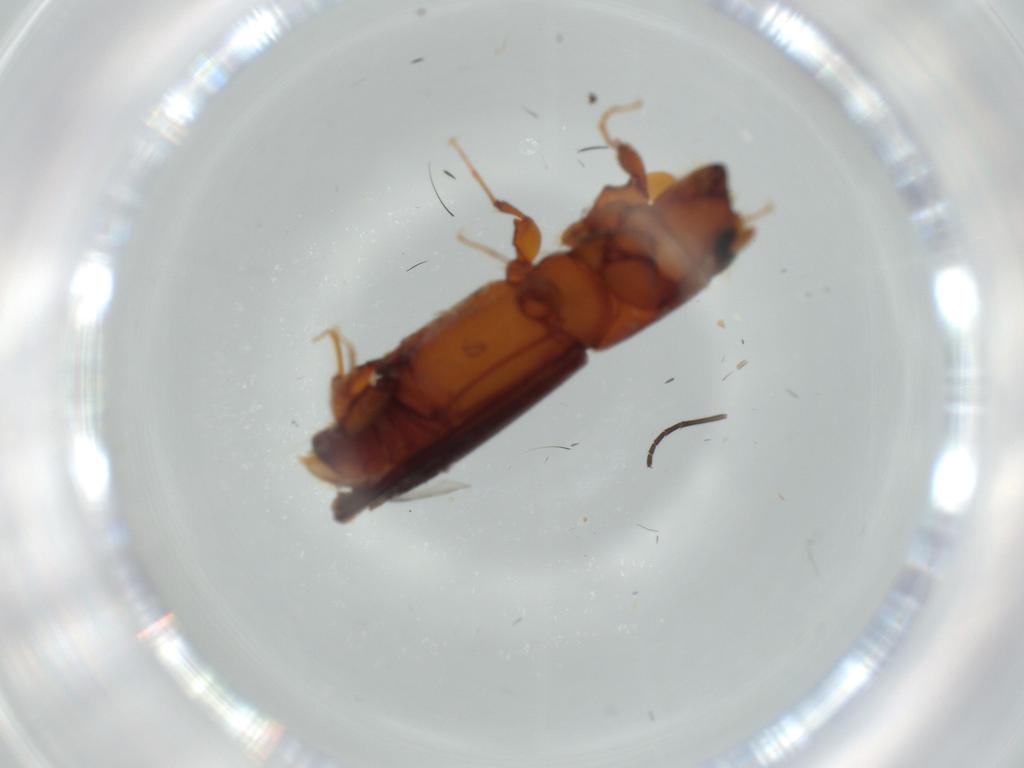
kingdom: Animalia
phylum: Arthropoda
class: Insecta
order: Coleoptera
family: Curculionidae
